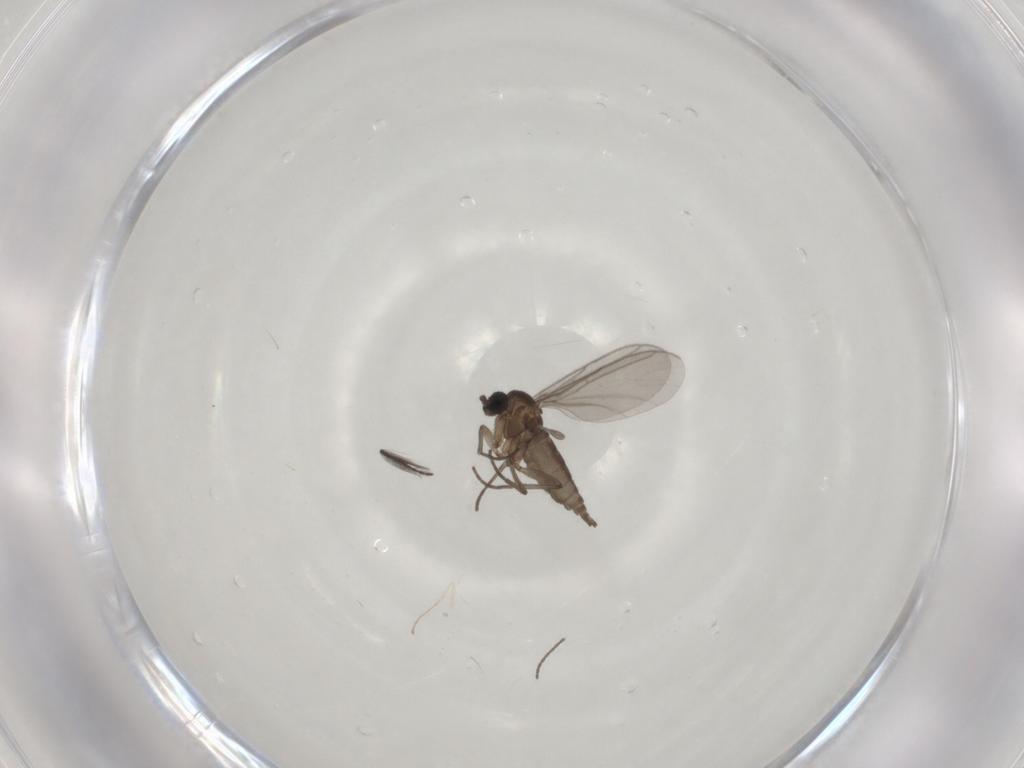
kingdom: Animalia
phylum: Arthropoda
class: Insecta
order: Diptera
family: Ceratopogonidae
